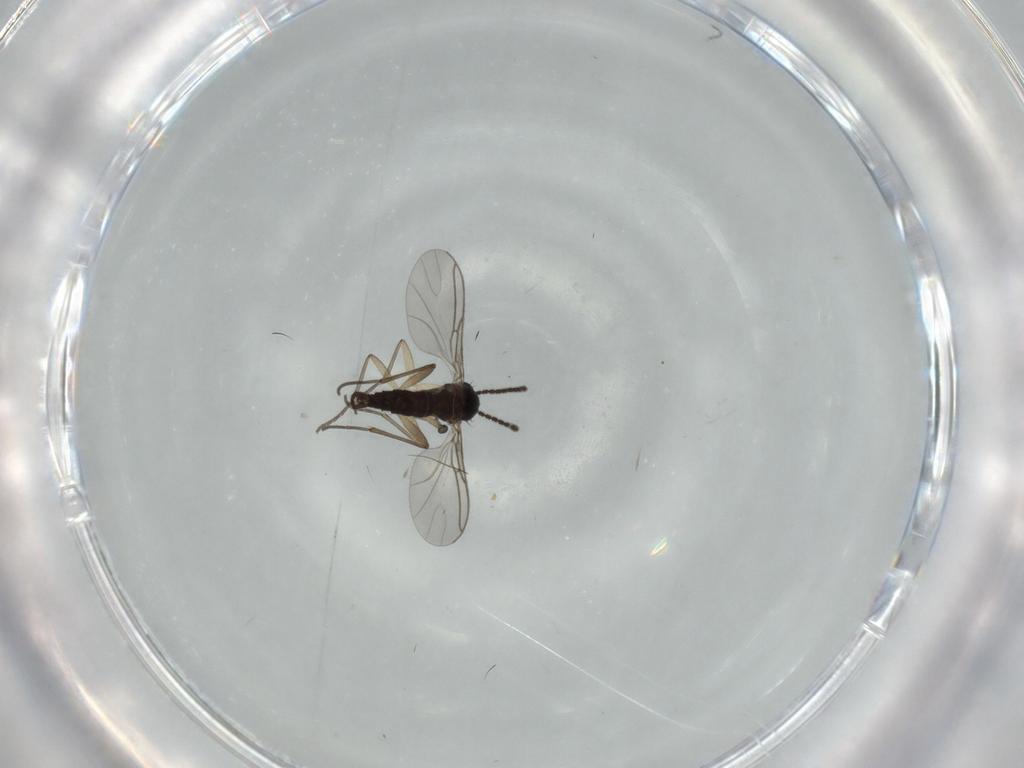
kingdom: Animalia
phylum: Arthropoda
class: Insecta
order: Diptera
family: Sciaridae
